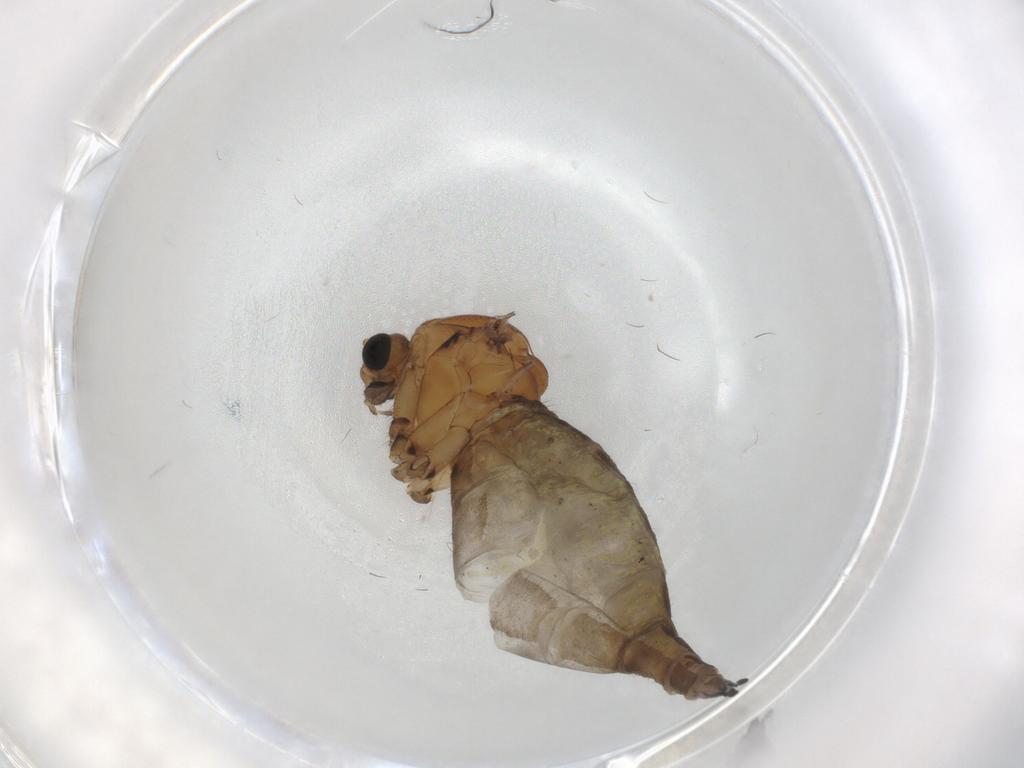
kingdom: Animalia
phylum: Arthropoda
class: Insecta
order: Diptera
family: Sciaridae
